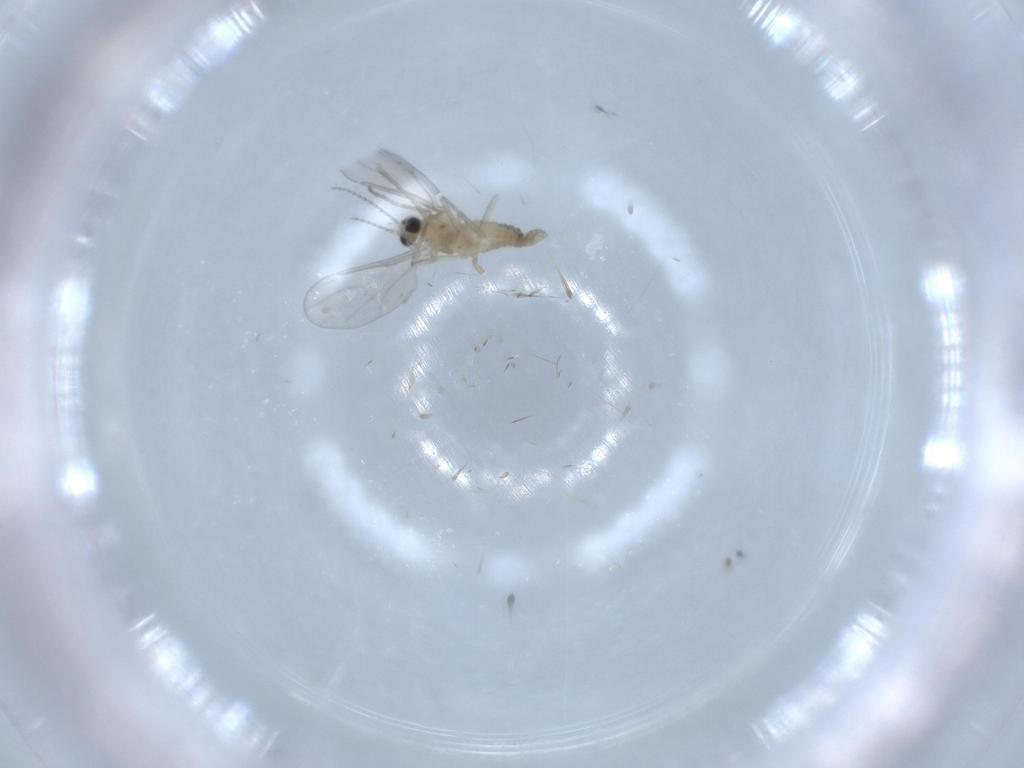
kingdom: Animalia
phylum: Arthropoda
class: Insecta
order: Diptera
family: Cecidomyiidae
